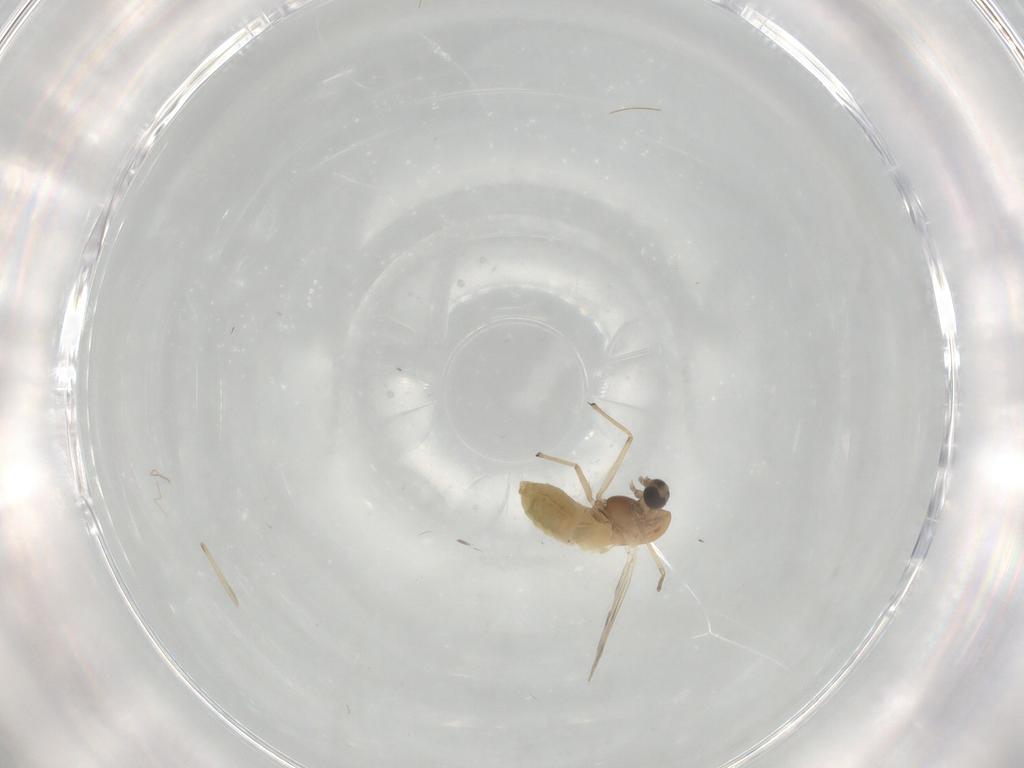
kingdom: Animalia
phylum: Arthropoda
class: Insecta
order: Diptera
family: Chironomidae
